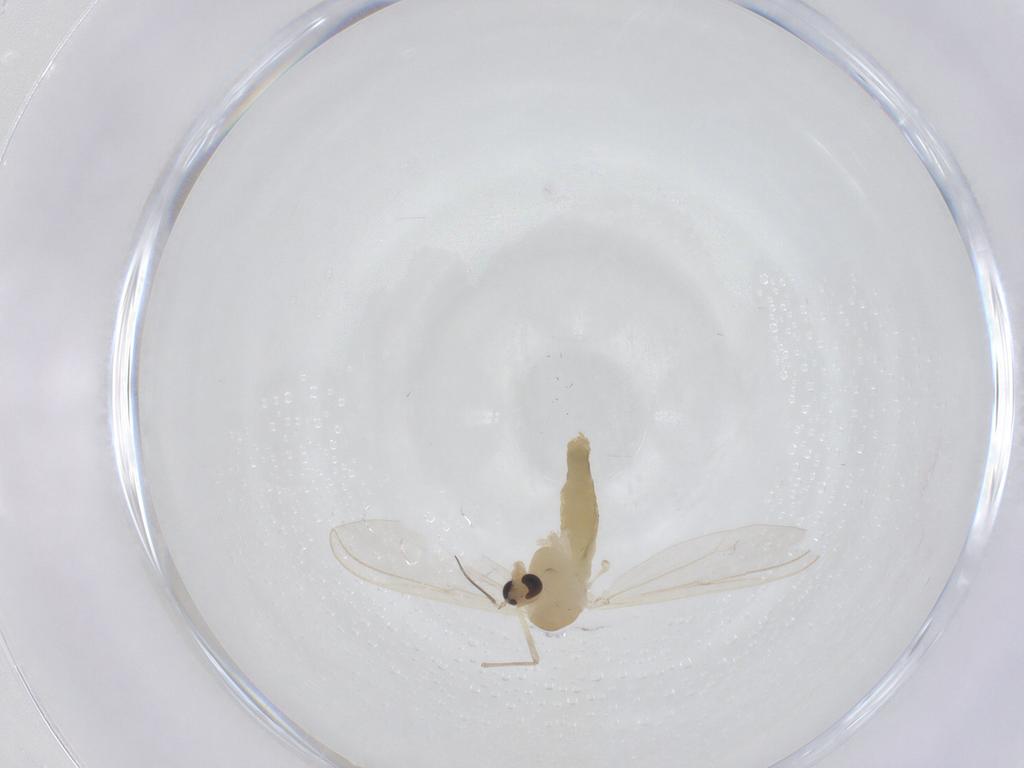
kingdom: Animalia
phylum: Arthropoda
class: Insecta
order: Diptera
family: Chironomidae
